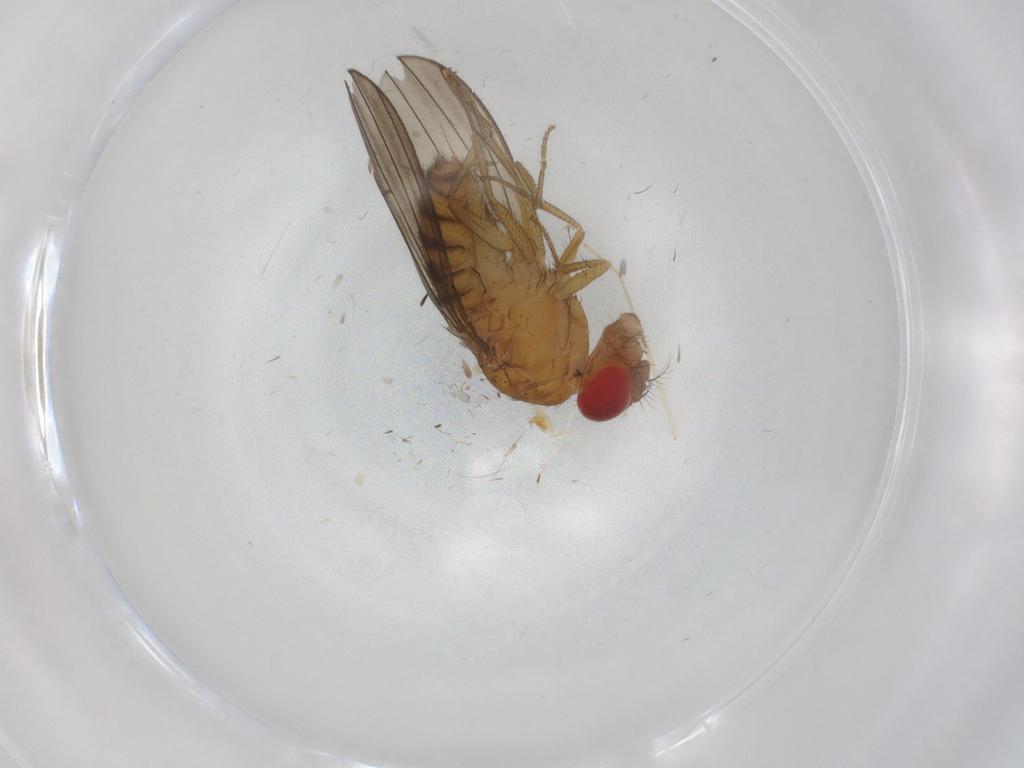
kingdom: Animalia
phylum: Arthropoda
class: Insecta
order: Diptera
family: Drosophilidae
